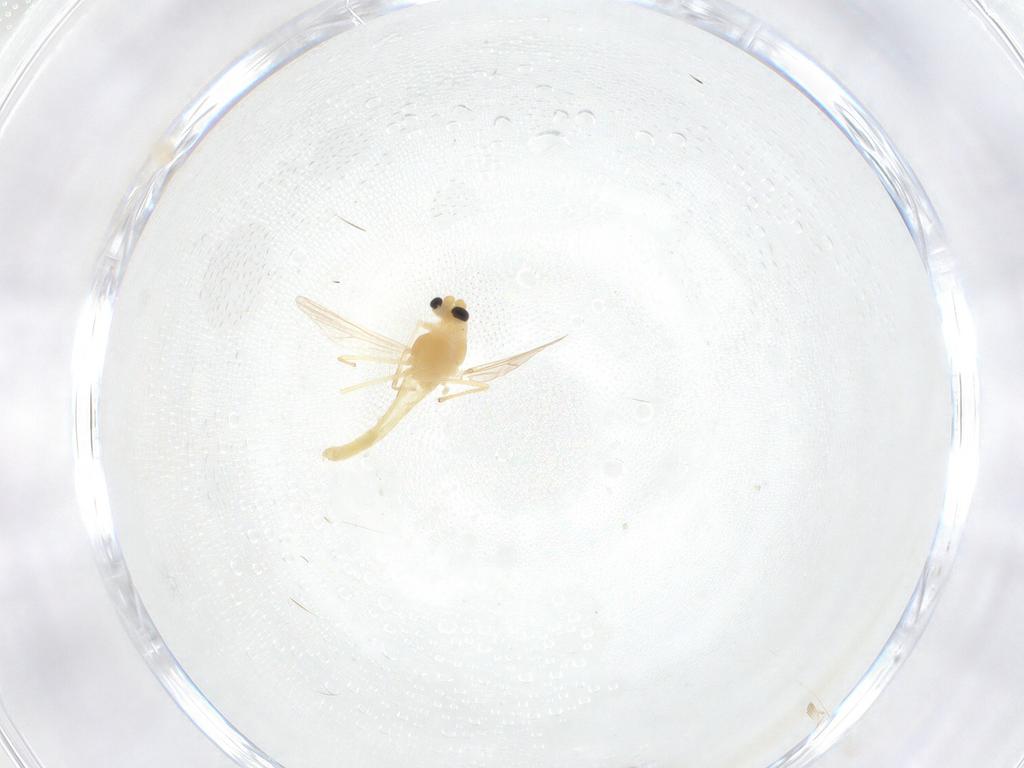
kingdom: Animalia
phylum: Arthropoda
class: Insecta
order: Diptera
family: Chironomidae
